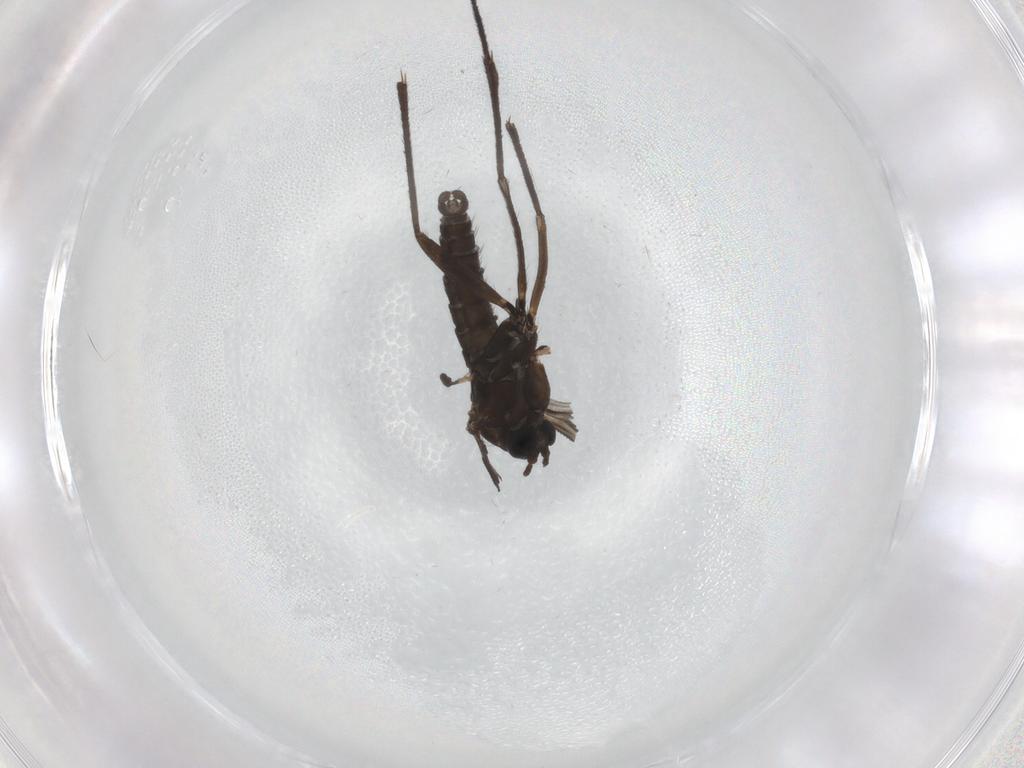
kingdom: Animalia
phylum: Arthropoda
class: Insecta
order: Diptera
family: Sciaridae
